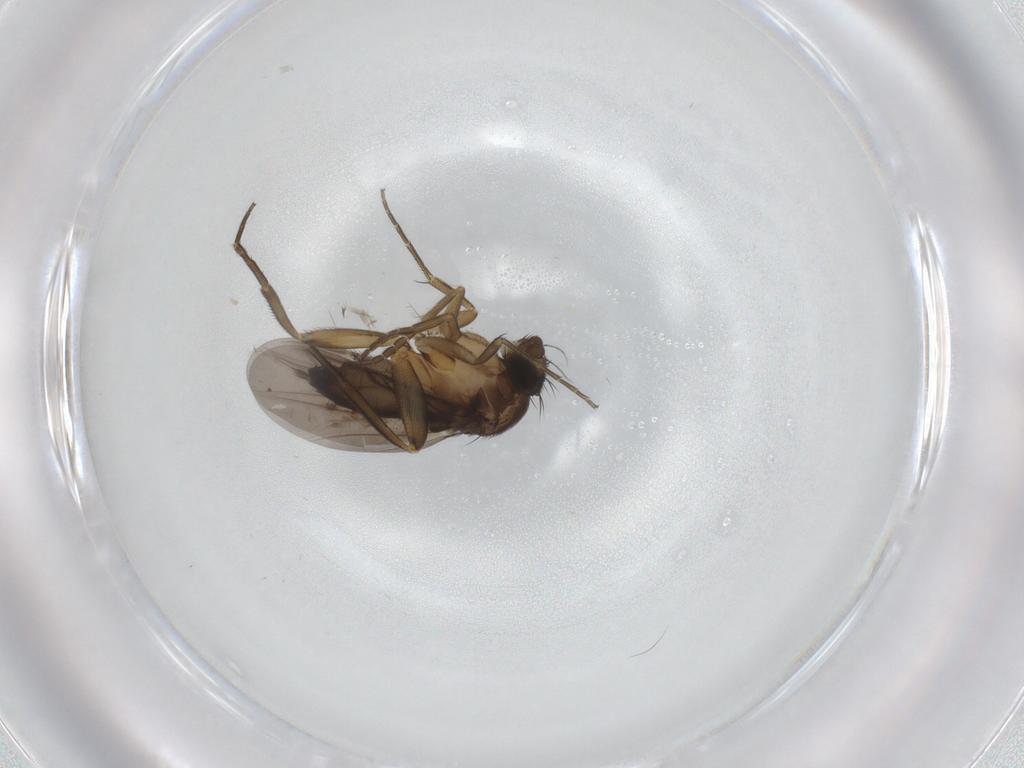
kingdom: Animalia
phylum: Arthropoda
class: Insecta
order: Diptera
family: Phoridae
